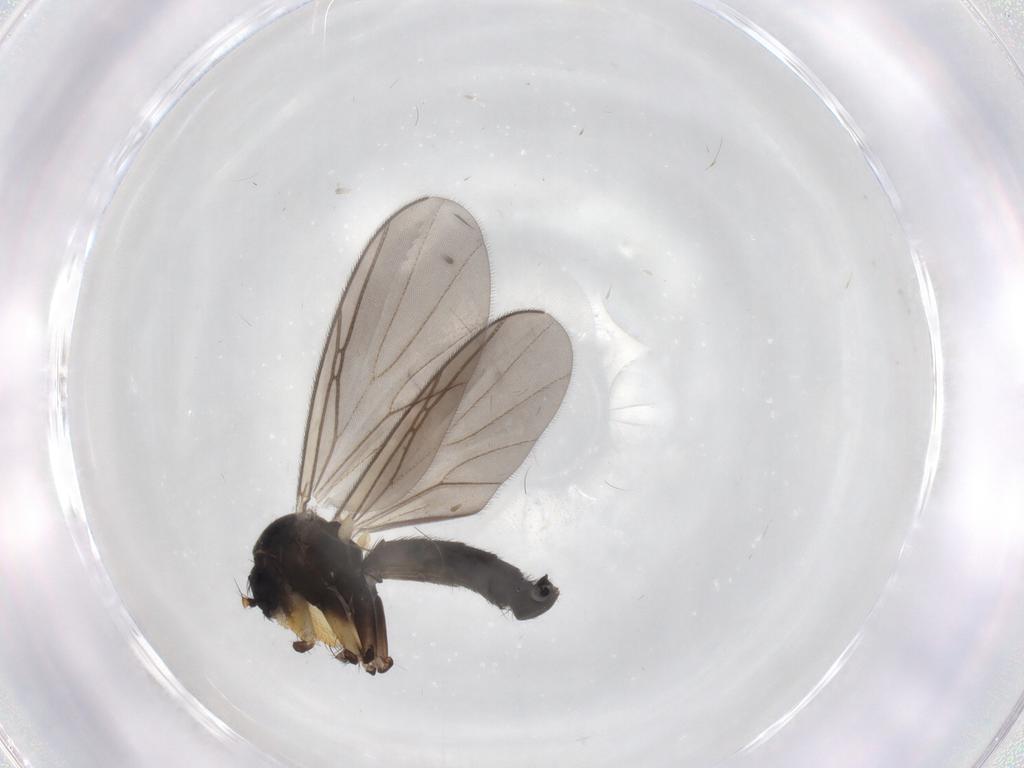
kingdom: Animalia
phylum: Arthropoda
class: Insecta
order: Diptera
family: Mycetophilidae
